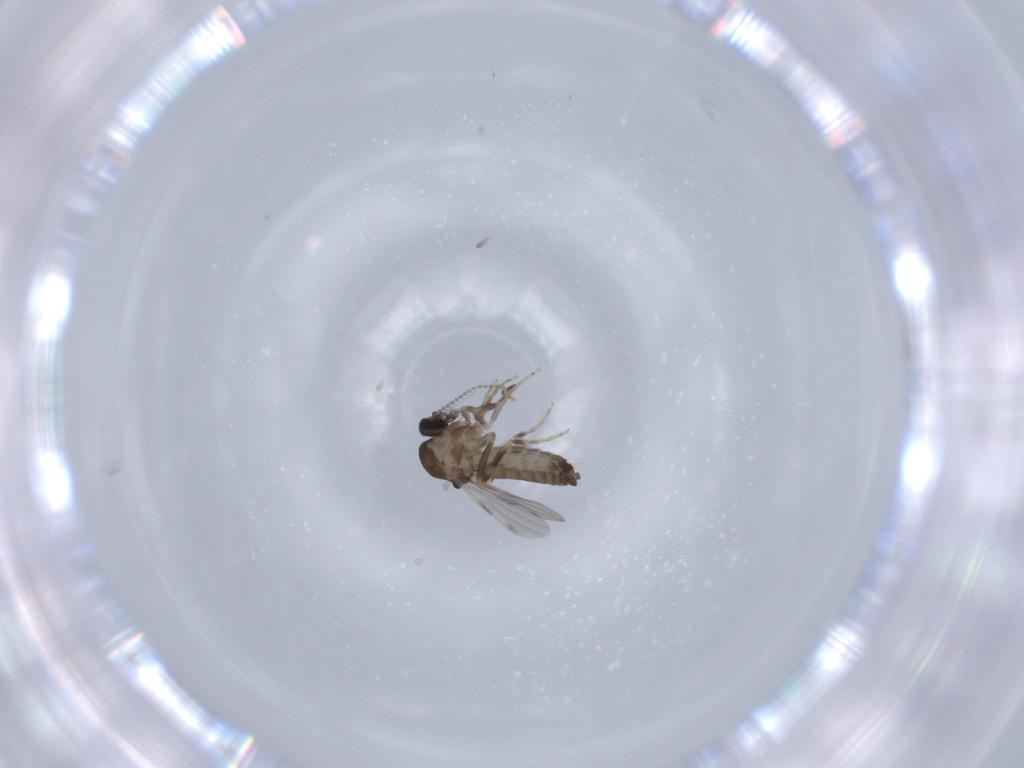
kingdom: Animalia
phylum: Arthropoda
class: Insecta
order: Diptera
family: Ceratopogonidae
